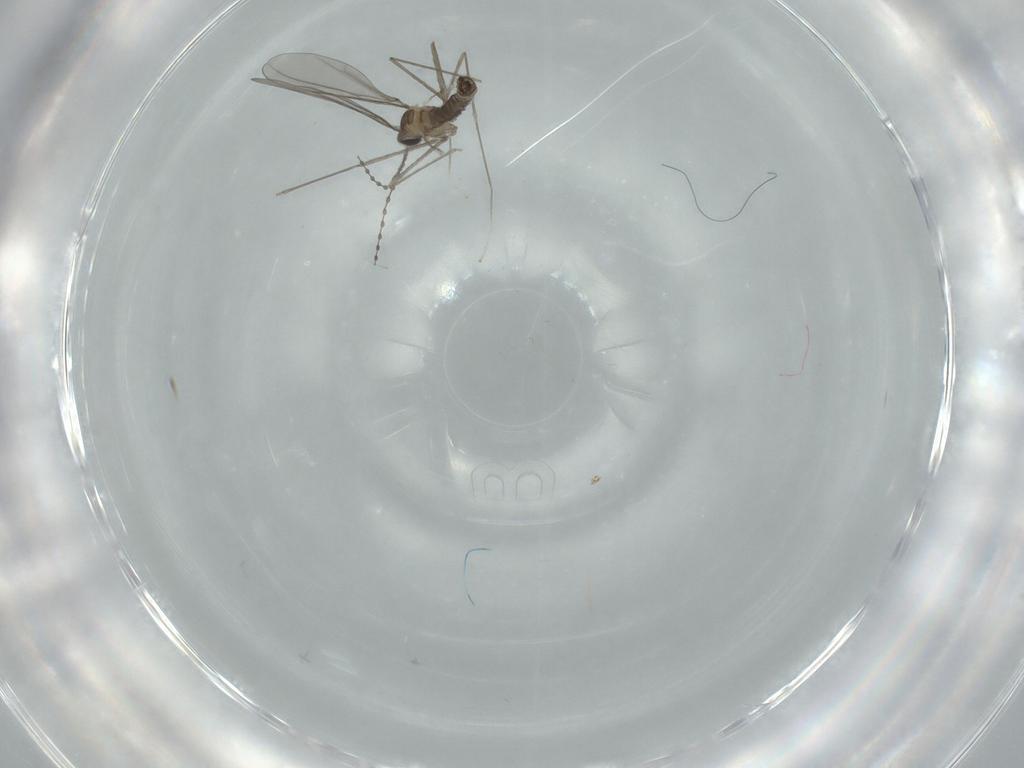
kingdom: Animalia
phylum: Arthropoda
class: Insecta
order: Diptera
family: Cecidomyiidae
